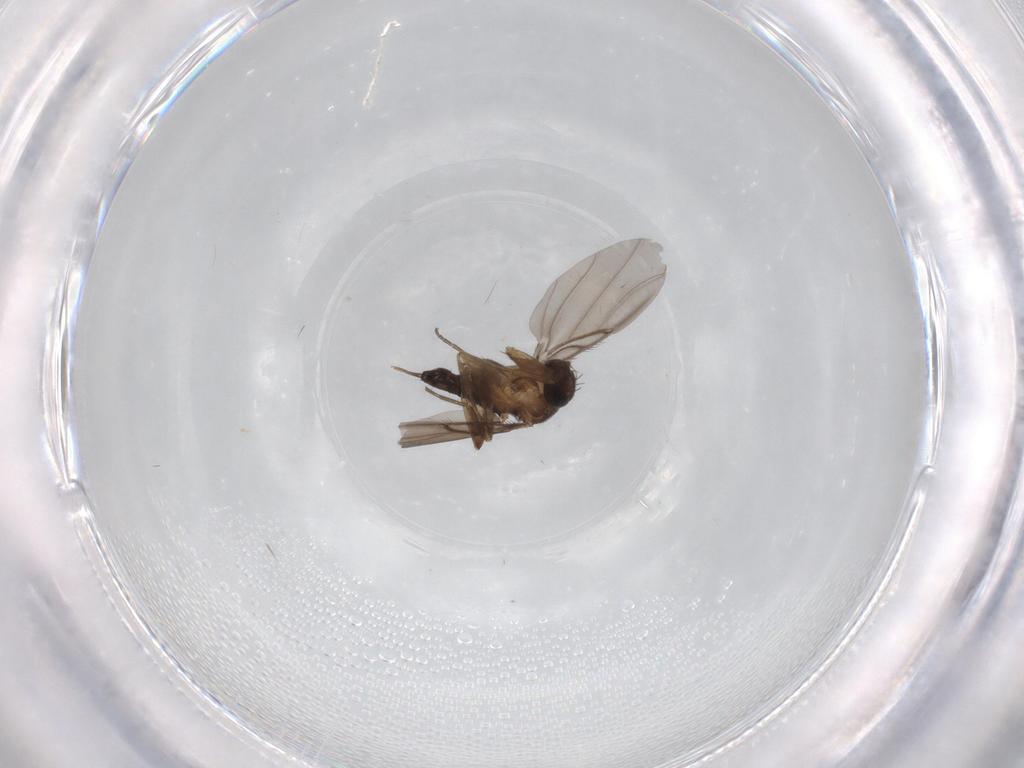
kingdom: Animalia
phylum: Arthropoda
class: Insecta
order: Diptera
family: Phoridae
